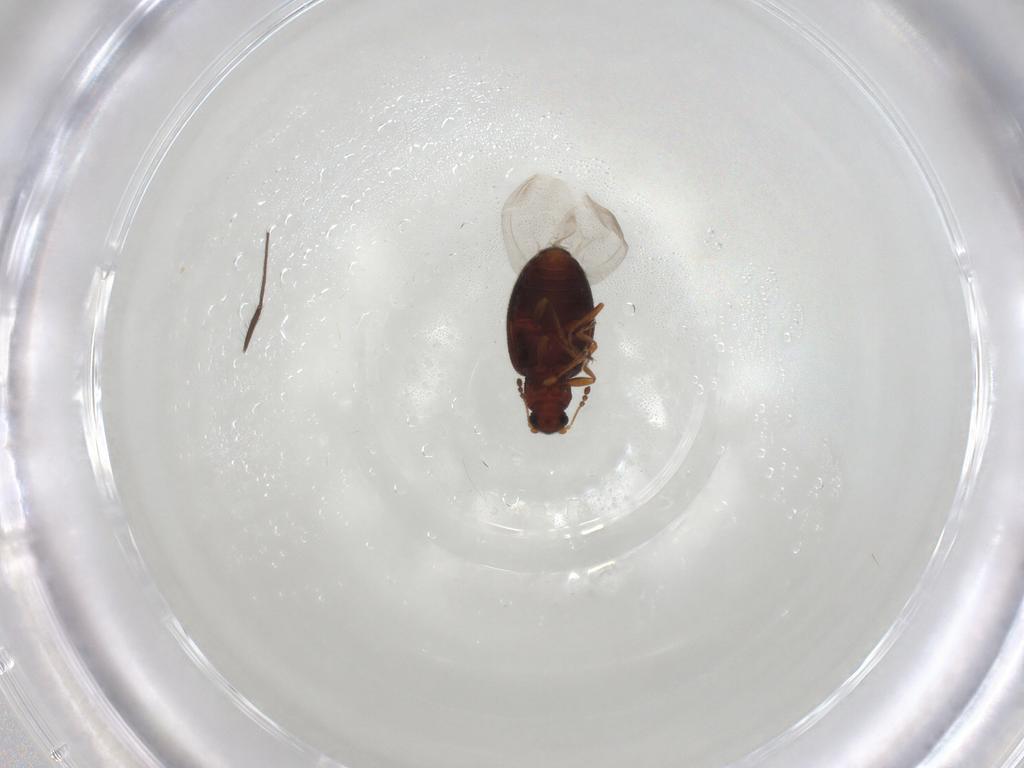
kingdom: Animalia
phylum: Arthropoda
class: Insecta
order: Coleoptera
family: Latridiidae
